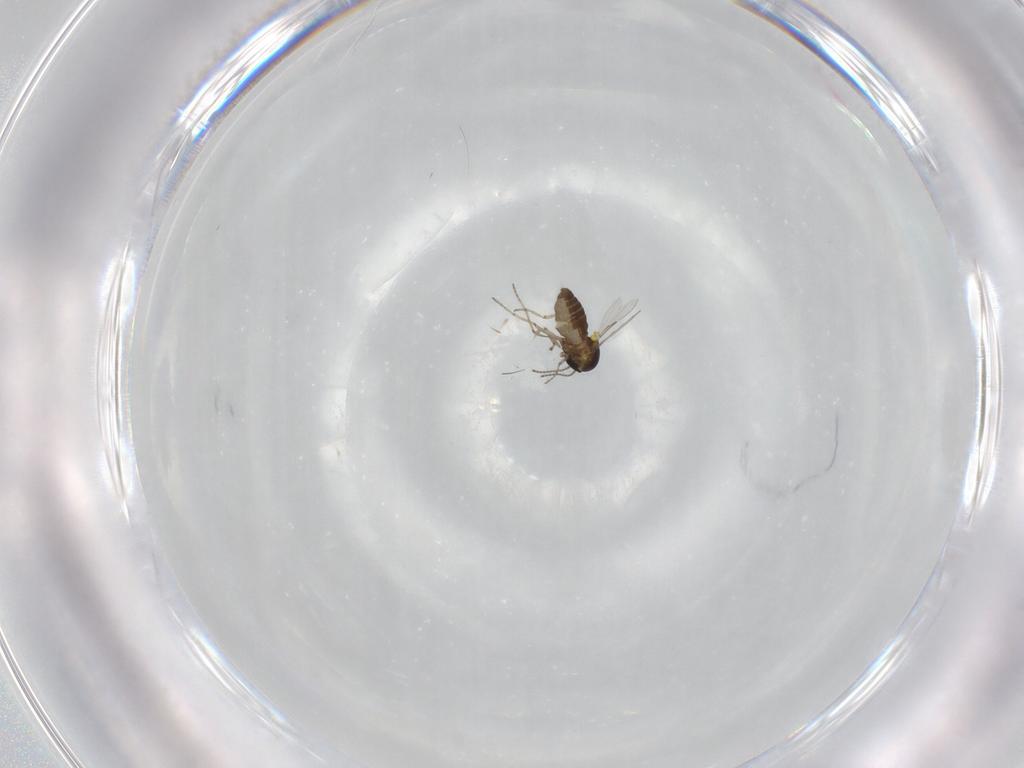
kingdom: Animalia
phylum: Arthropoda
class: Insecta
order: Diptera
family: Ceratopogonidae
